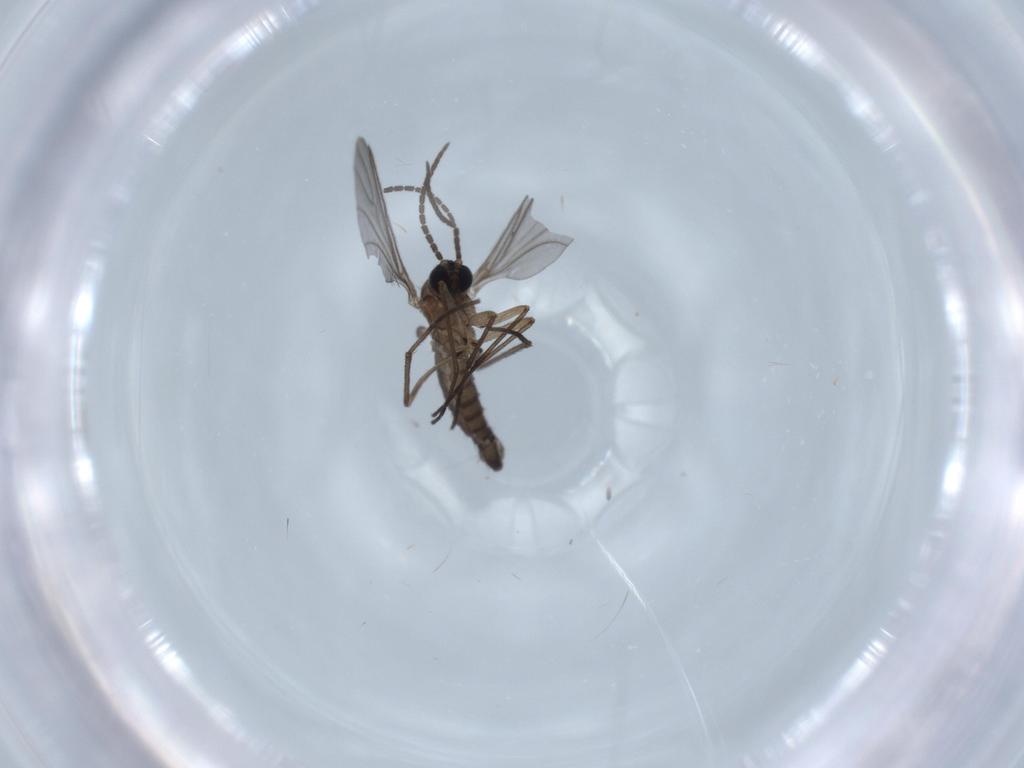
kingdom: Animalia
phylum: Arthropoda
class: Insecta
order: Diptera
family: Sciaridae
